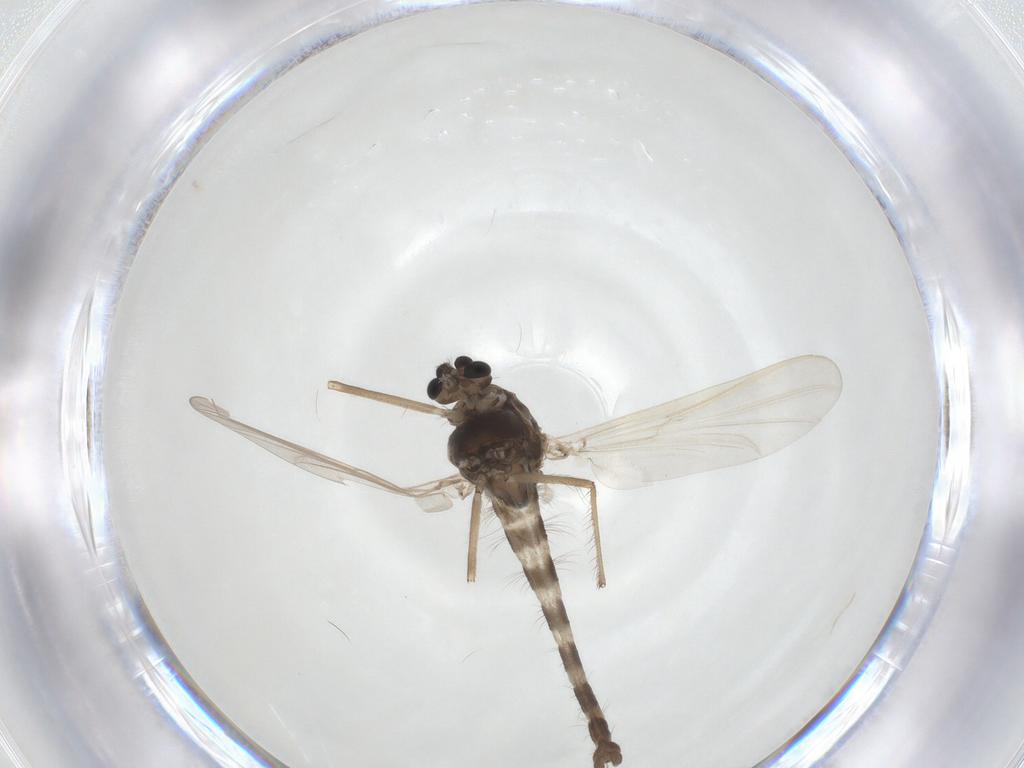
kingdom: Animalia
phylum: Arthropoda
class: Insecta
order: Diptera
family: Chironomidae
